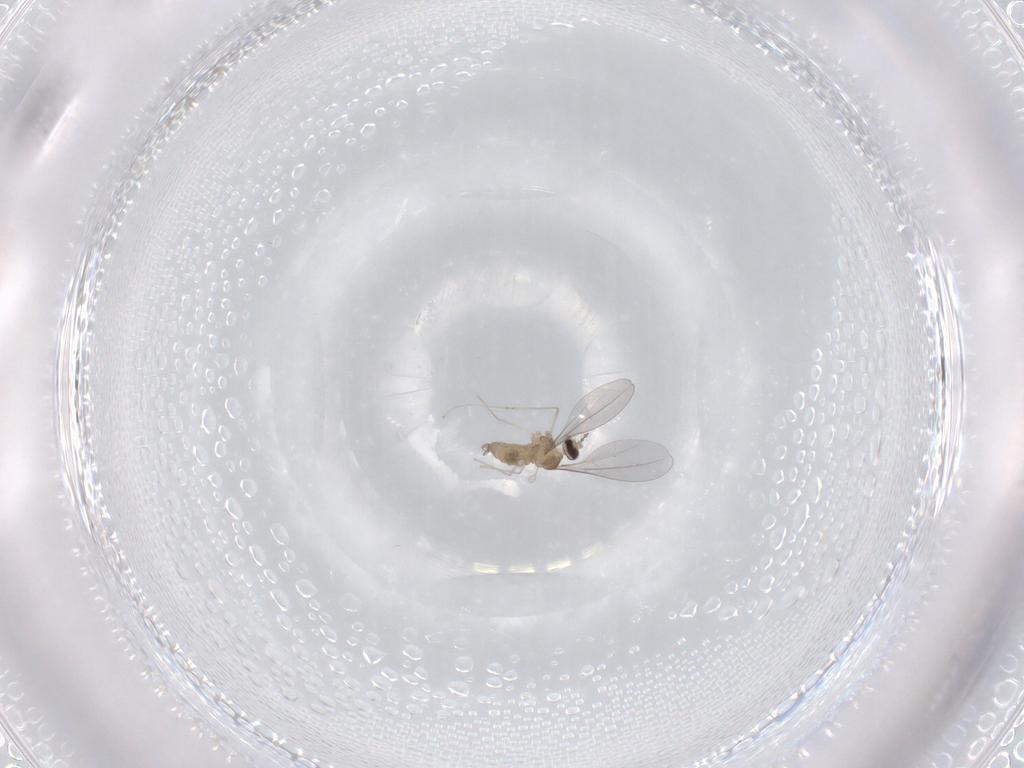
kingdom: Animalia
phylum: Arthropoda
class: Insecta
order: Diptera
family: Cecidomyiidae
